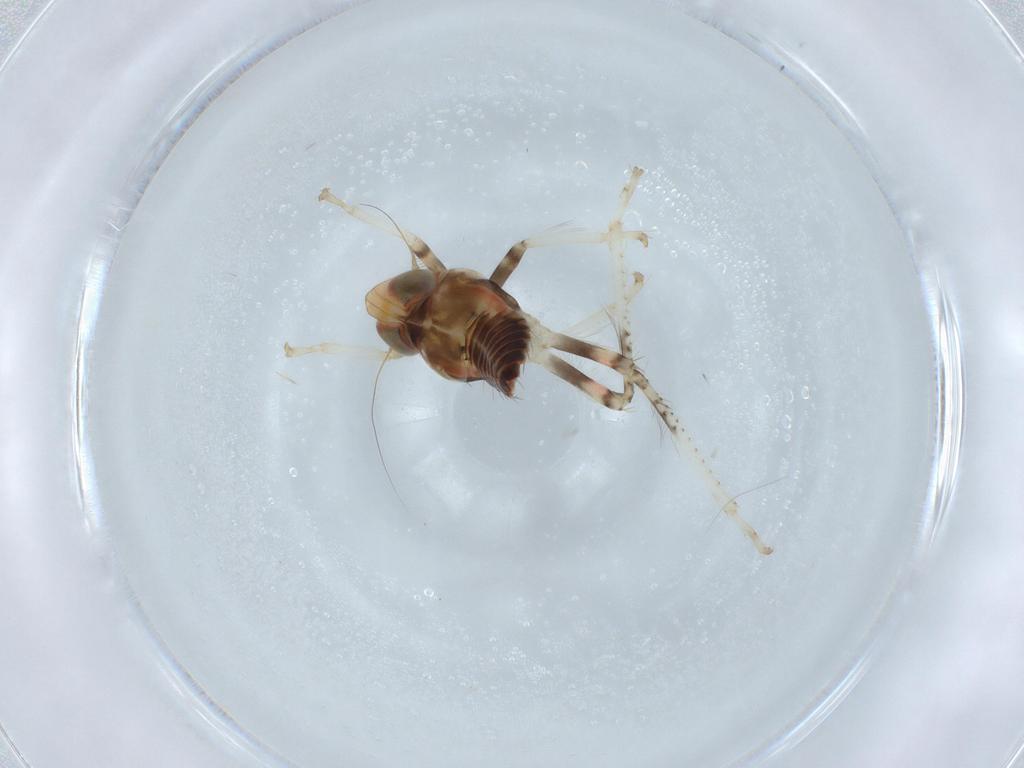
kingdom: Animalia
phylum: Arthropoda
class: Insecta
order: Hemiptera
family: Cicadellidae
